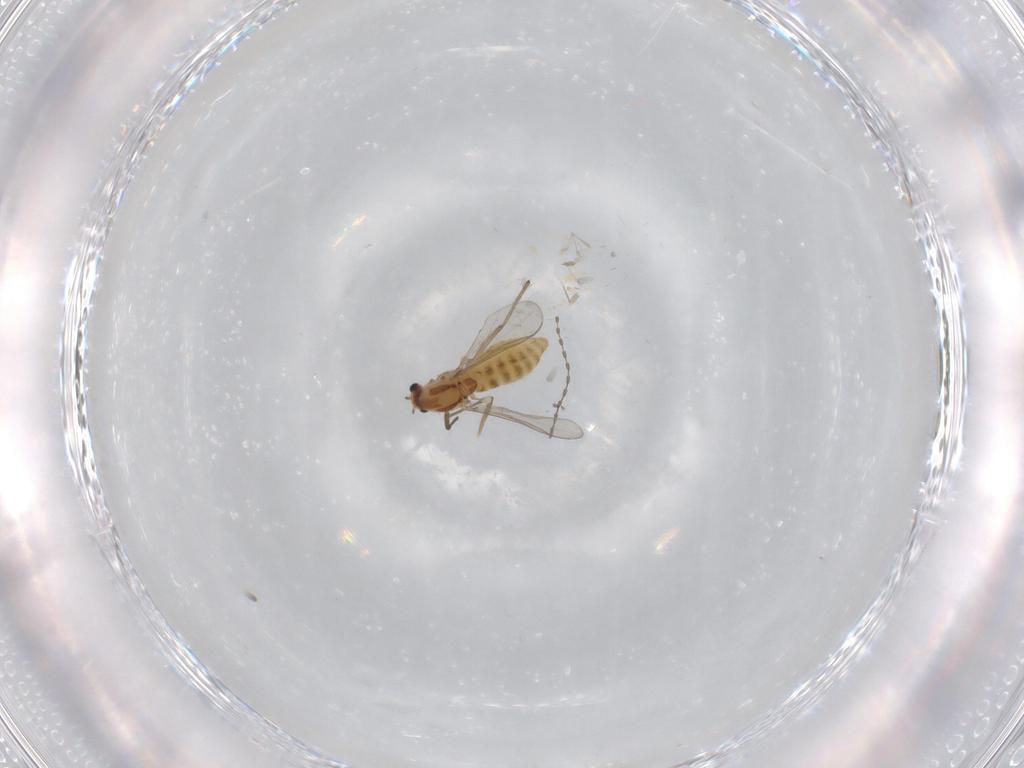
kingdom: Animalia
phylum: Arthropoda
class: Insecta
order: Diptera
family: Chironomidae
